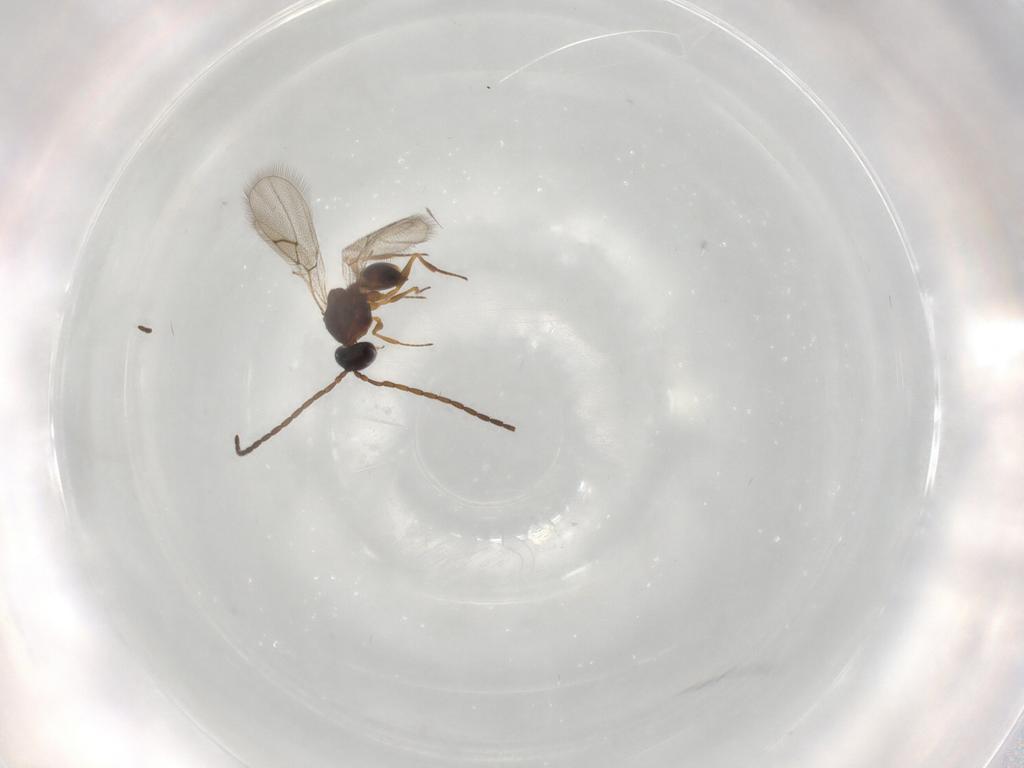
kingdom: Animalia
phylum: Arthropoda
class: Insecta
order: Hymenoptera
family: Figitidae
